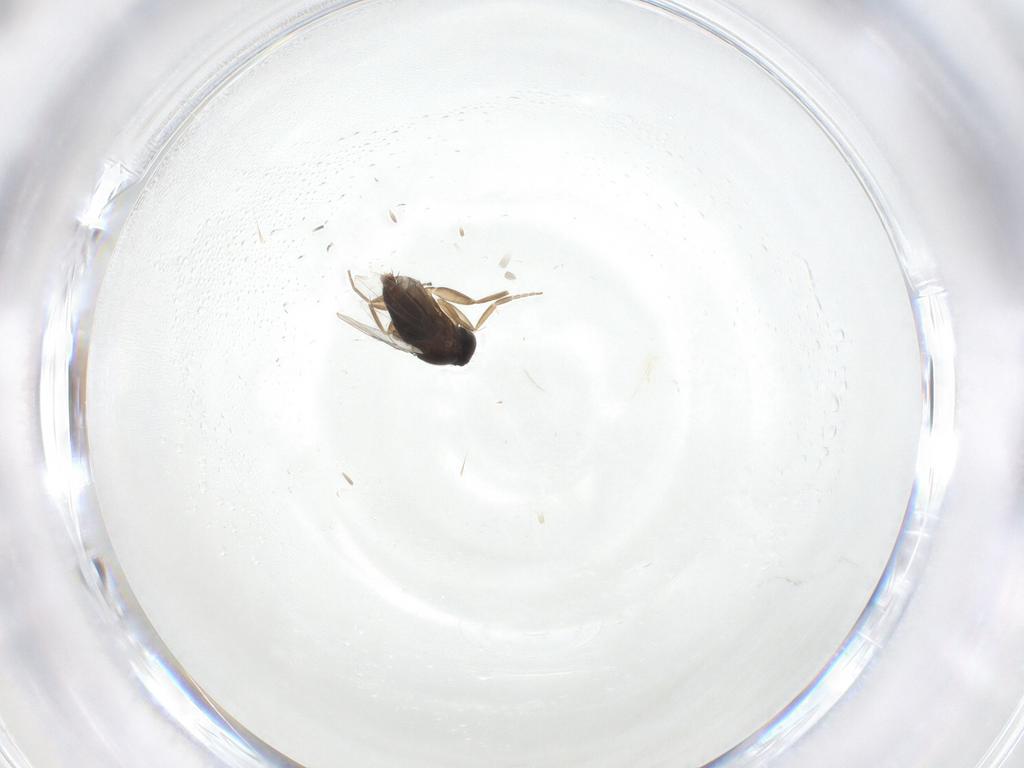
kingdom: Animalia
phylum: Arthropoda
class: Insecta
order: Diptera
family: Phoridae
